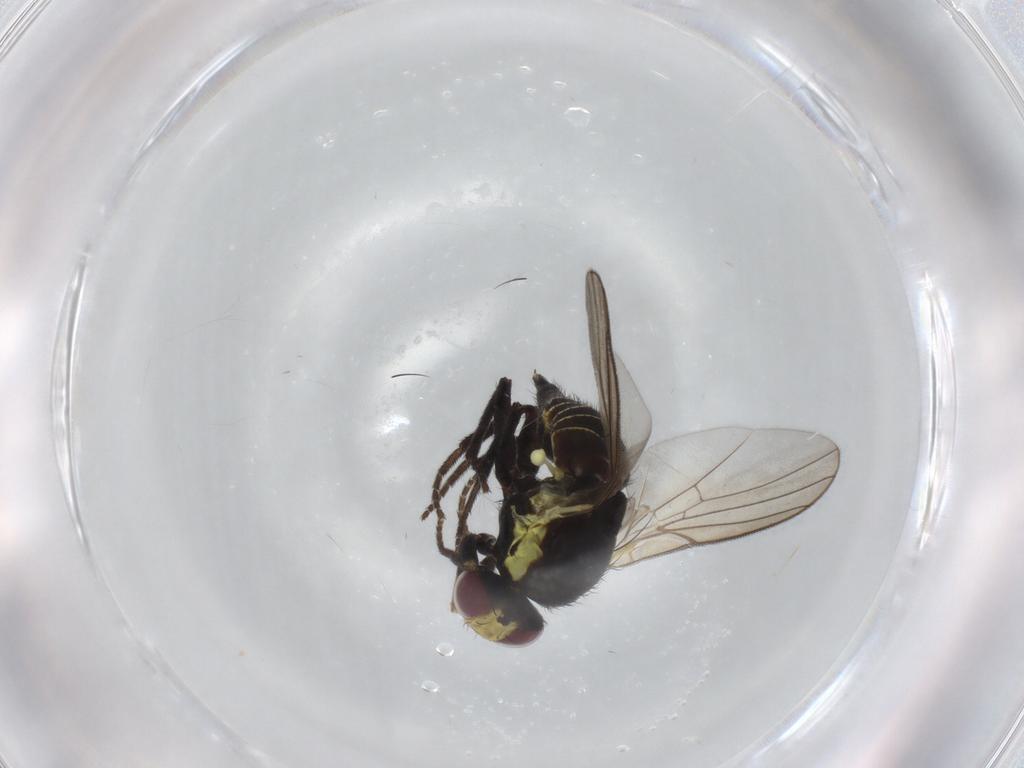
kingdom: Animalia
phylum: Arthropoda
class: Insecta
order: Diptera
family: Agromyzidae
